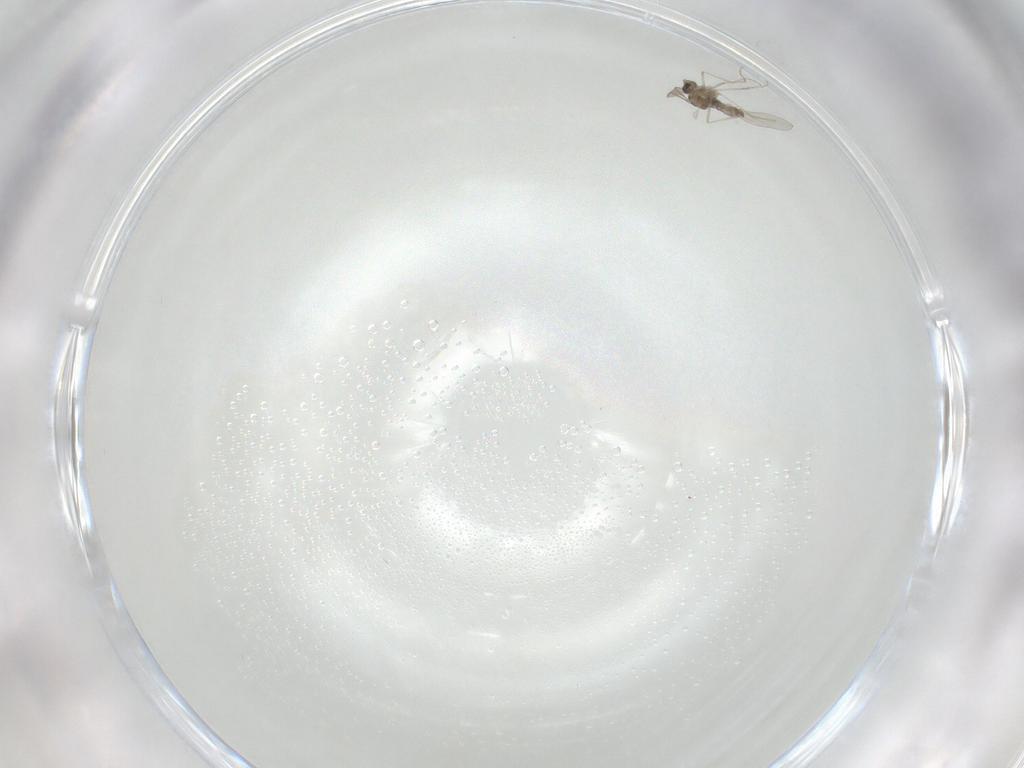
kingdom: Animalia
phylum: Arthropoda
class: Insecta
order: Diptera
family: Cecidomyiidae
